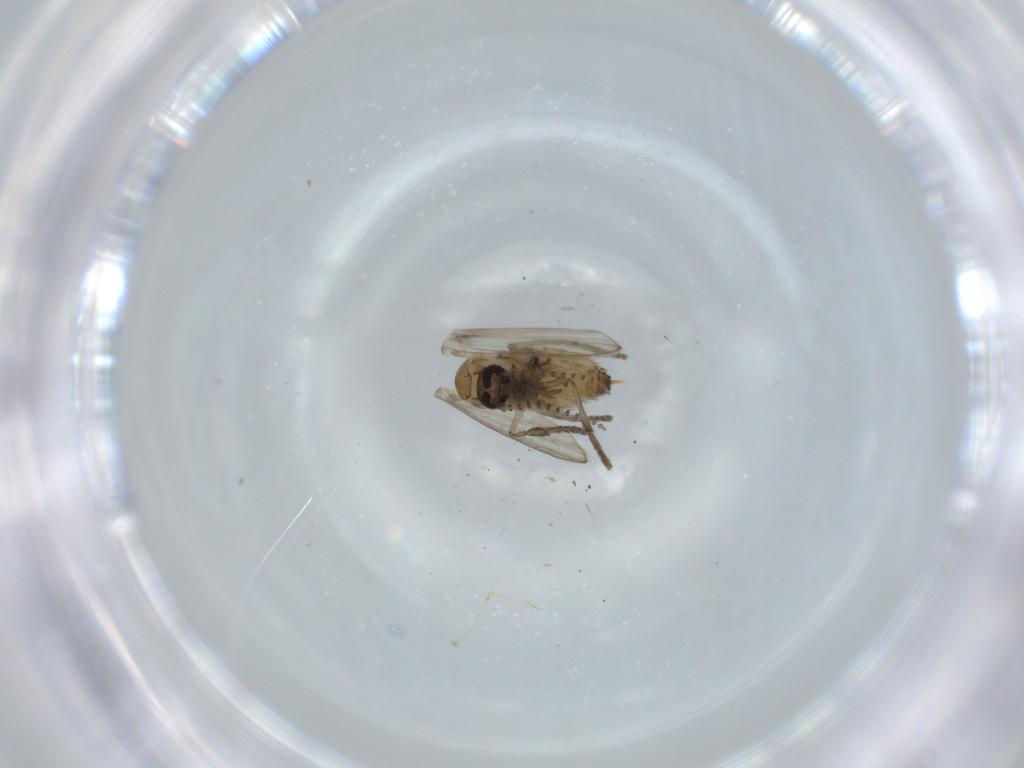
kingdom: Animalia
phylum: Arthropoda
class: Insecta
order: Diptera
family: Psychodidae
